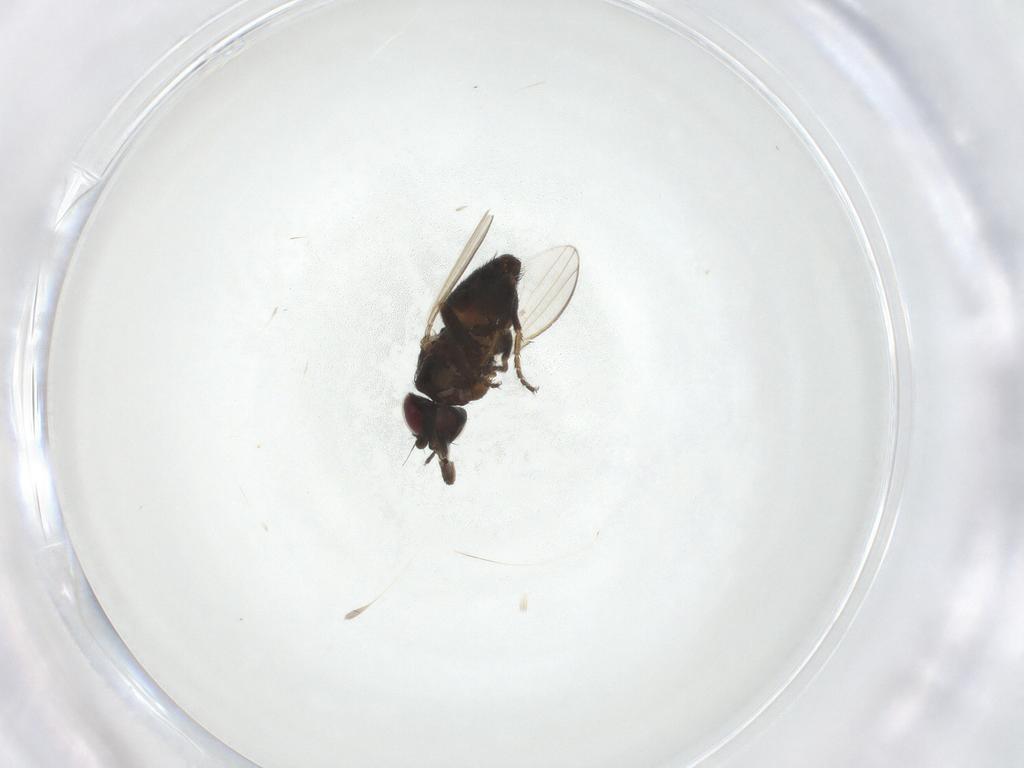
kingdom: Animalia
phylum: Arthropoda
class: Insecta
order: Diptera
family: Milichiidae
